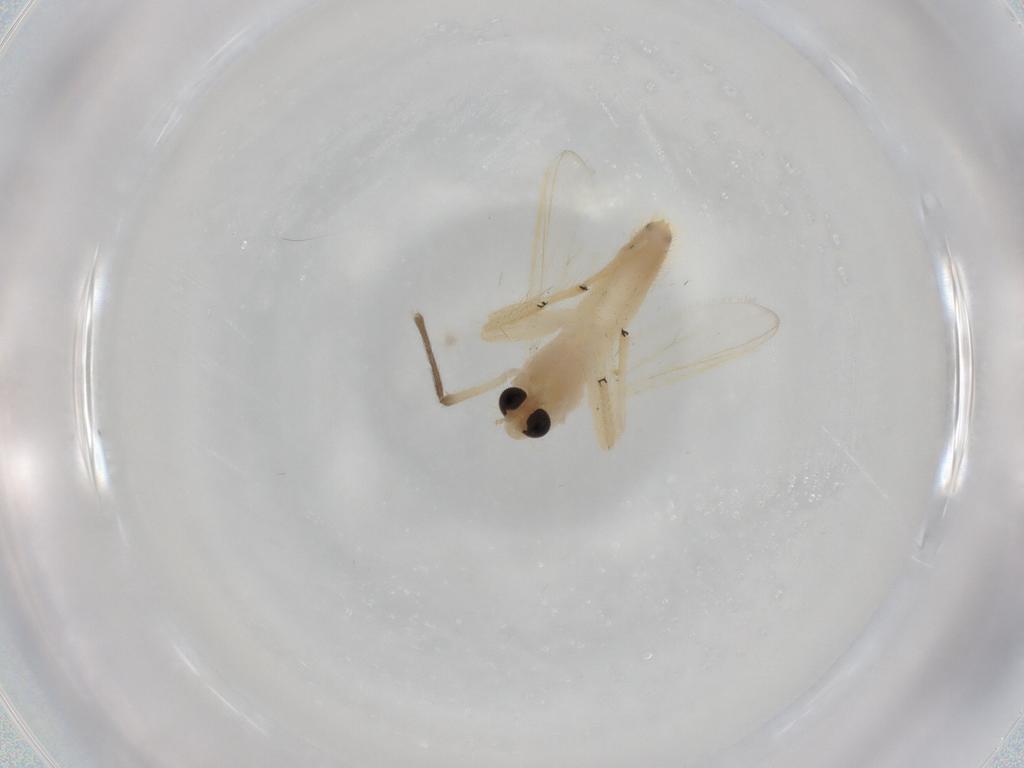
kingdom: Animalia
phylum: Arthropoda
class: Insecta
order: Diptera
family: Chironomidae
